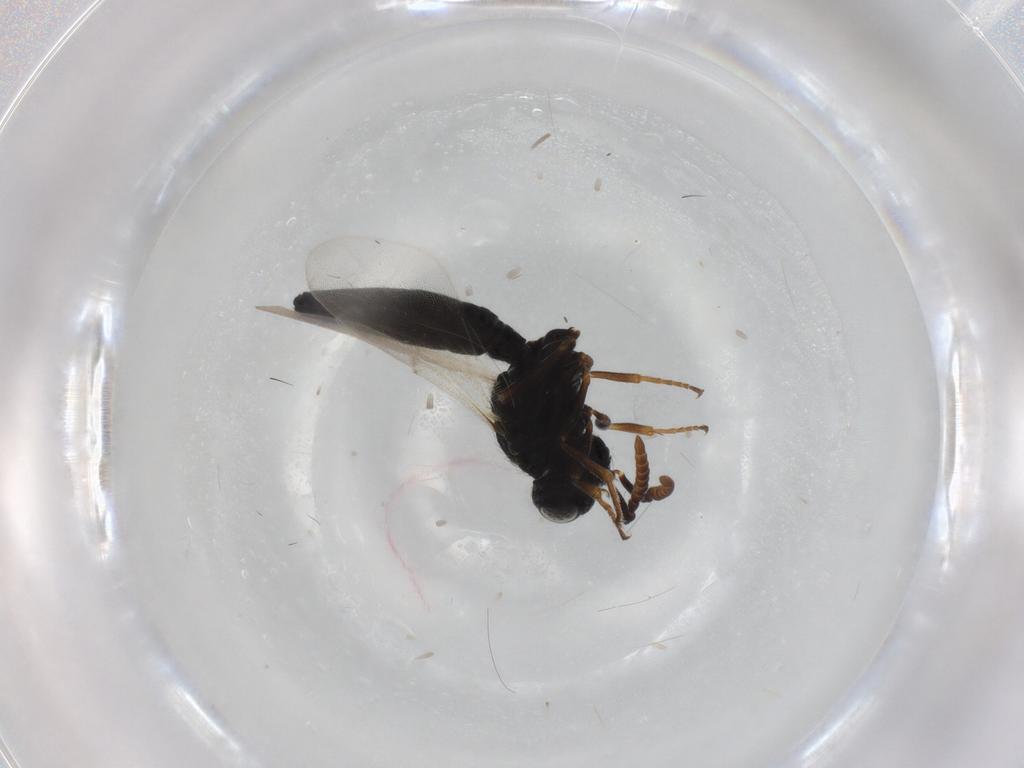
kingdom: Animalia
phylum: Arthropoda
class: Insecta
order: Hymenoptera
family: Scelionidae
